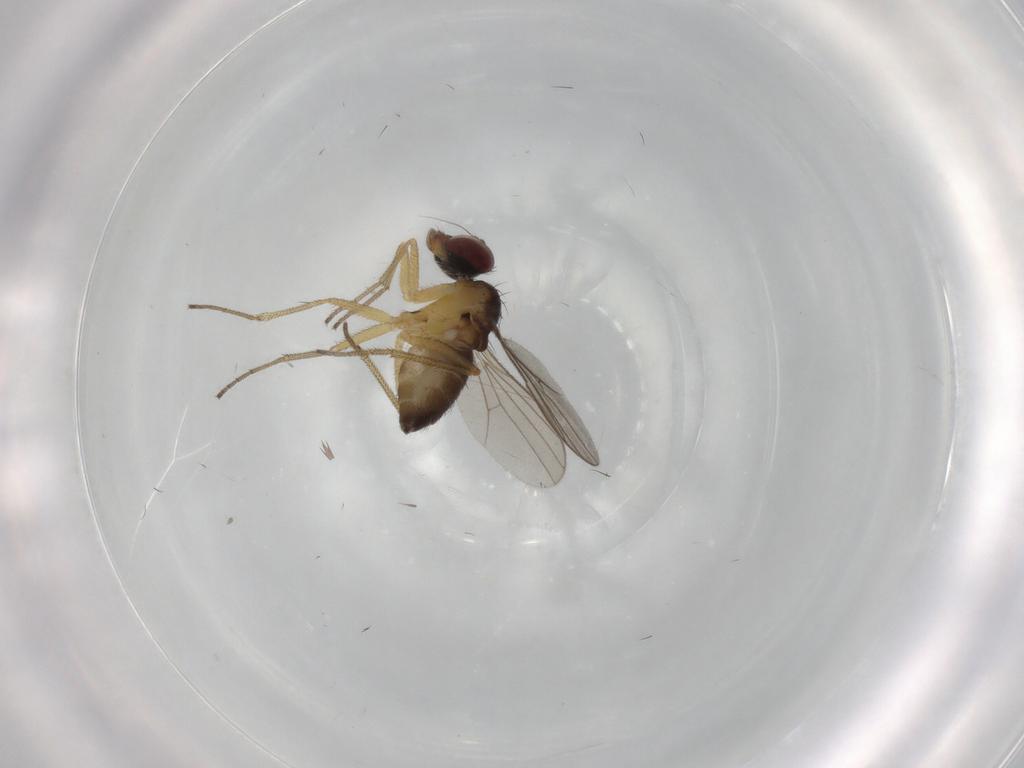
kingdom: Animalia
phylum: Arthropoda
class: Insecta
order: Diptera
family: Dolichopodidae
